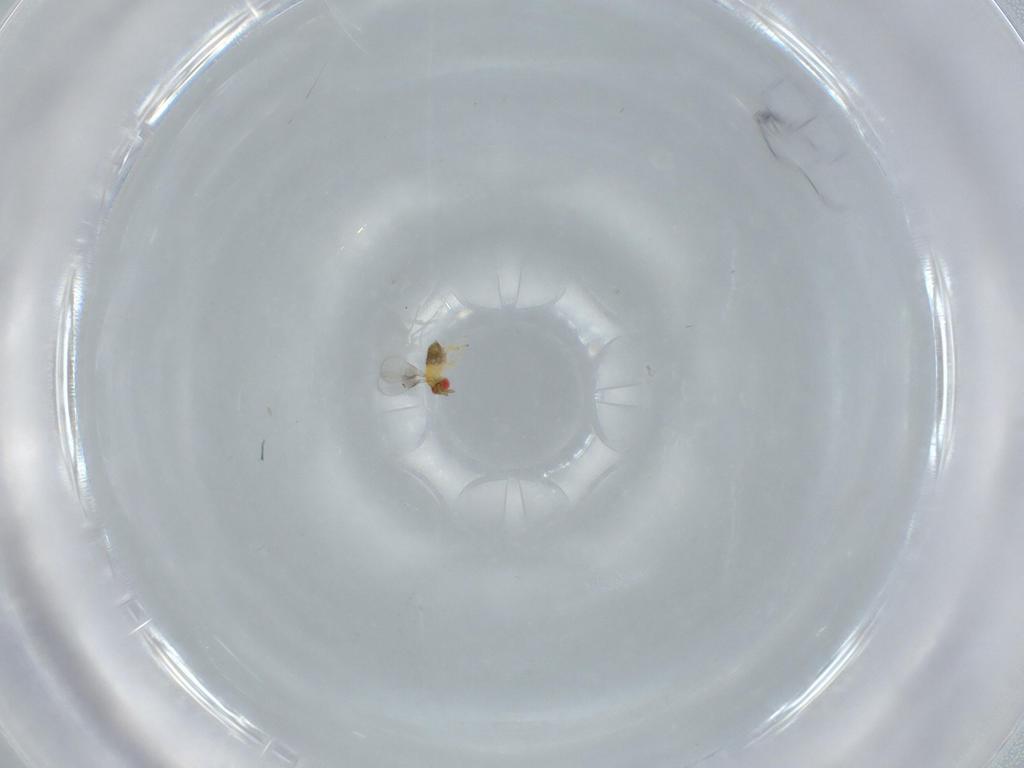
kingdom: Animalia
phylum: Arthropoda
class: Insecta
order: Hymenoptera
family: Trichogrammatidae
